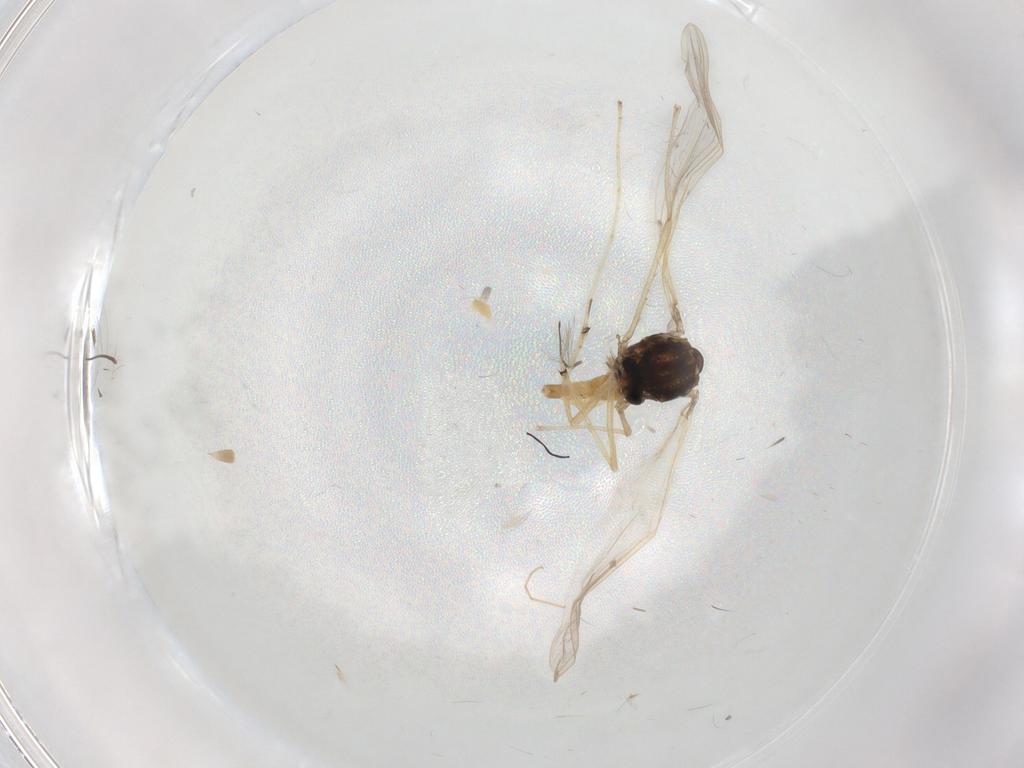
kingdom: Animalia
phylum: Arthropoda
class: Insecta
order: Diptera
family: Chironomidae
